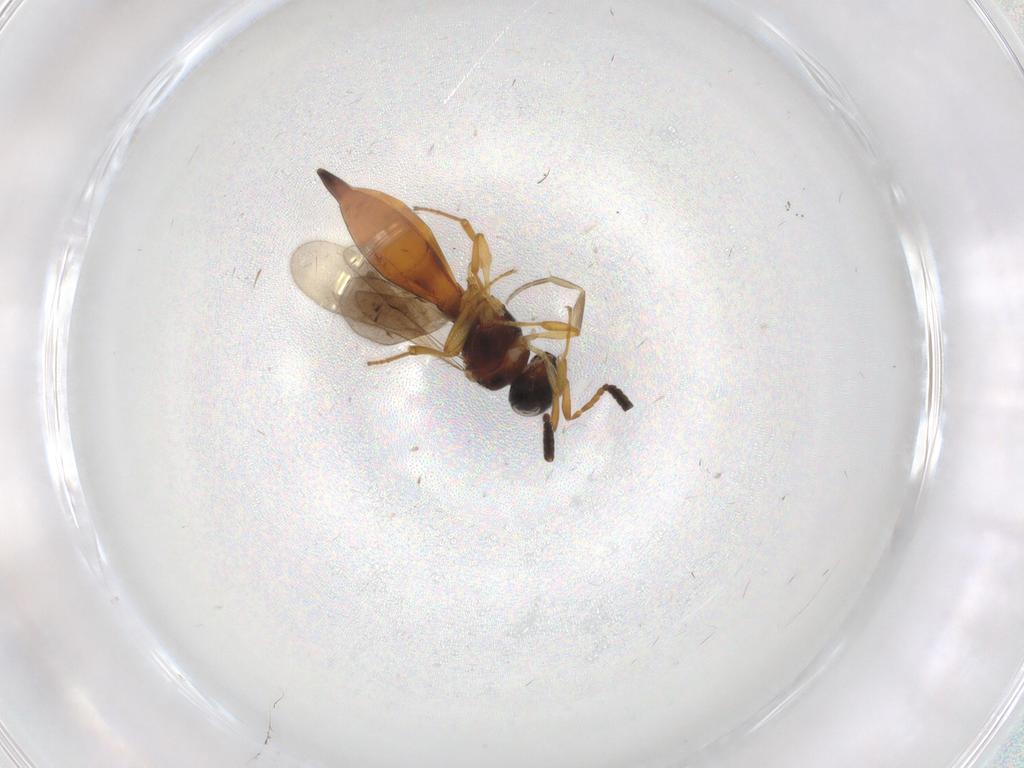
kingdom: Animalia
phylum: Arthropoda
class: Insecta
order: Hymenoptera
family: Scelionidae
